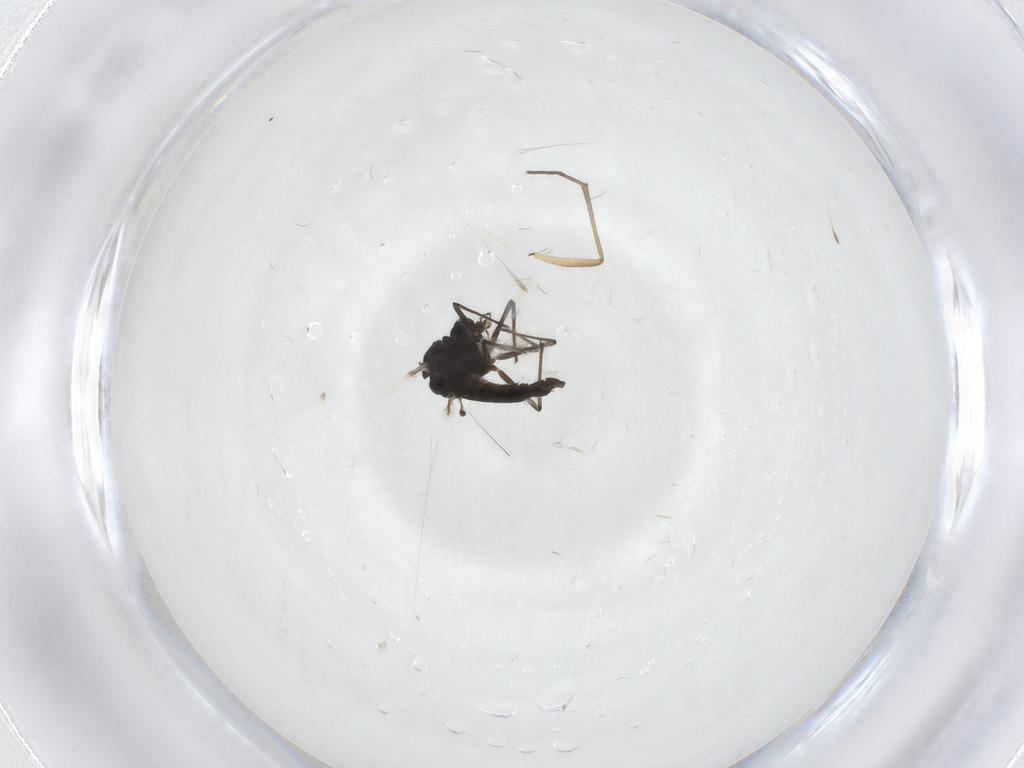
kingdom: Animalia
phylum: Arthropoda
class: Insecta
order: Diptera
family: Chironomidae
